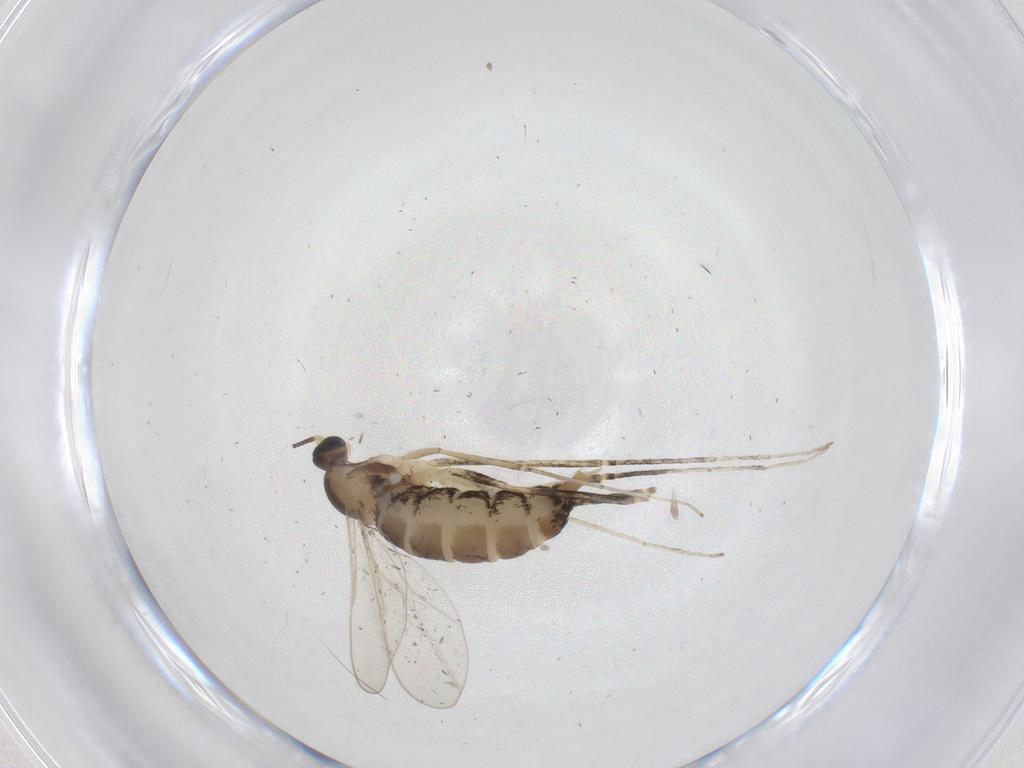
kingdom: Animalia
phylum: Arthropoda
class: Insecta
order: Diptera
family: Cecidomyiidae
